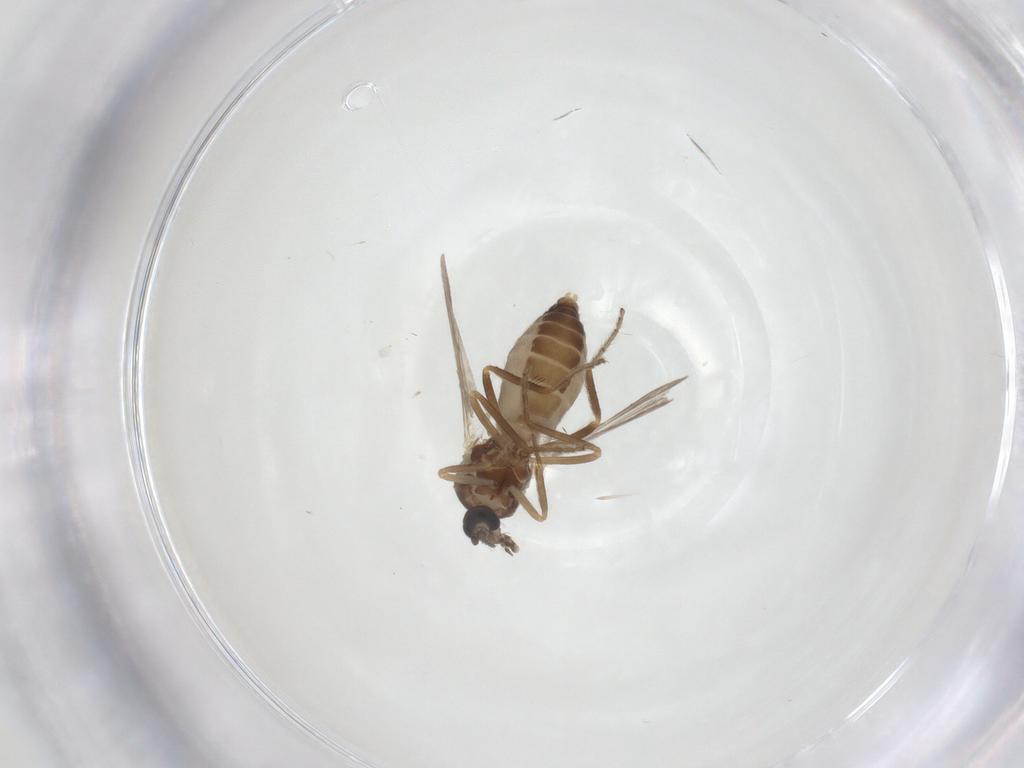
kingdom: Animalia
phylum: Arthropoda
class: Insecta
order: Diptera
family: Ceratopogonidae
